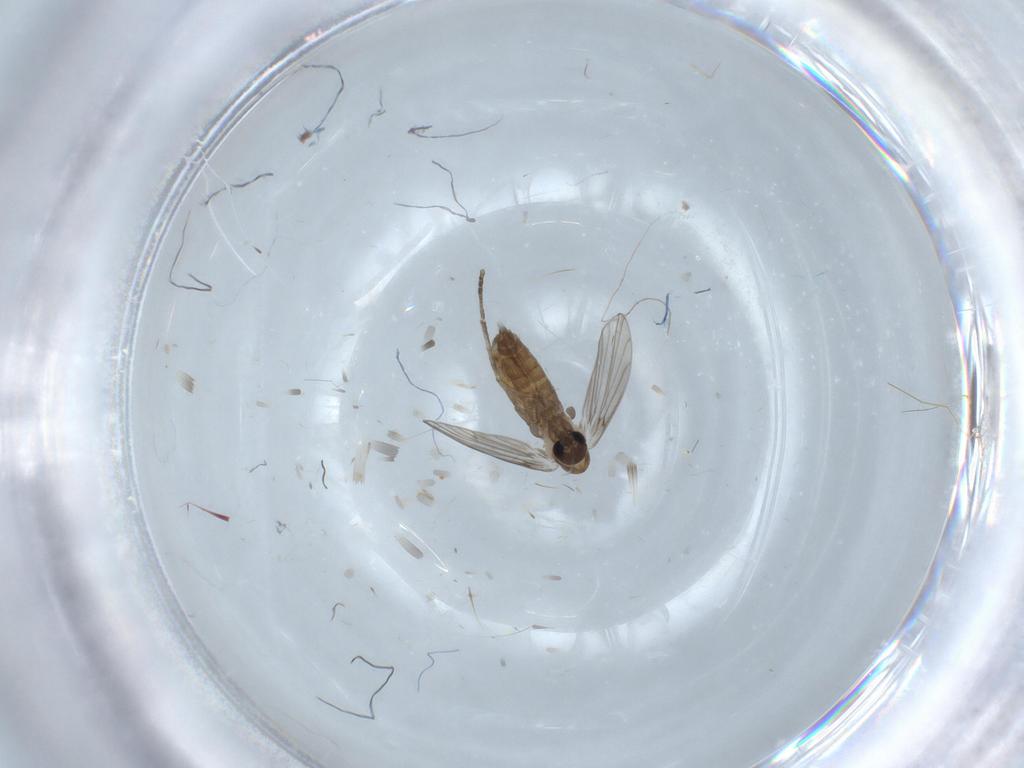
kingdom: Animalia
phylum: Arthropoda
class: Insecta
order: Diptera
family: Psychodidae
